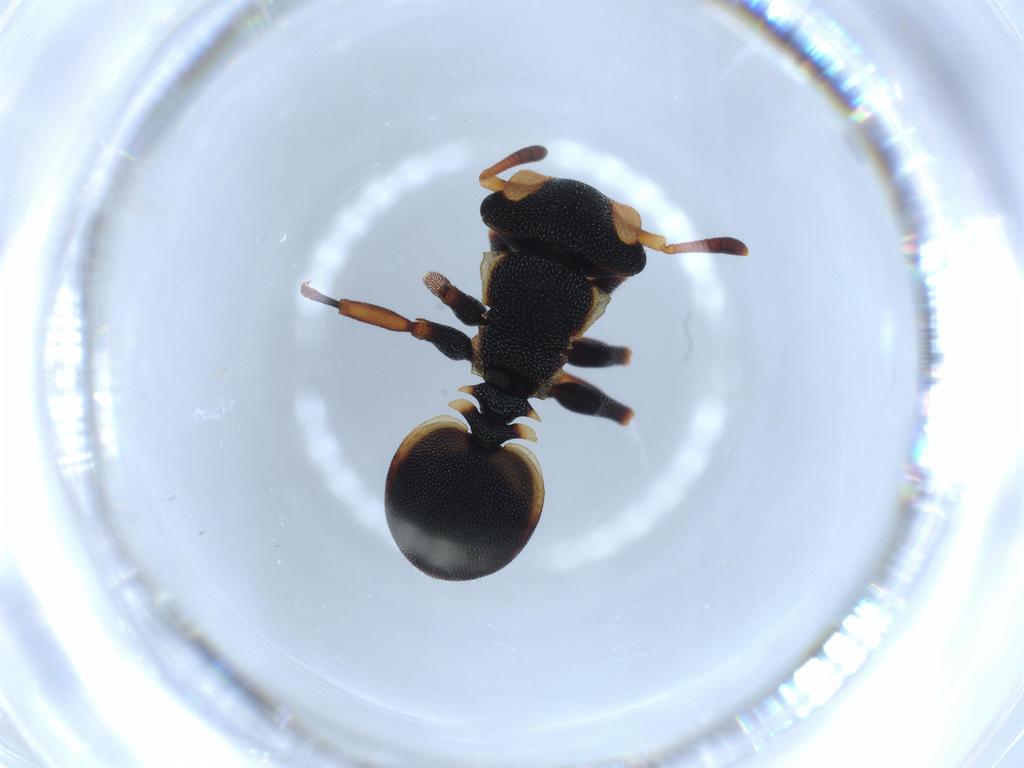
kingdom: Animalia
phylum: Arthropoda
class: Insecta
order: Hymenoptera
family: Formicidae
